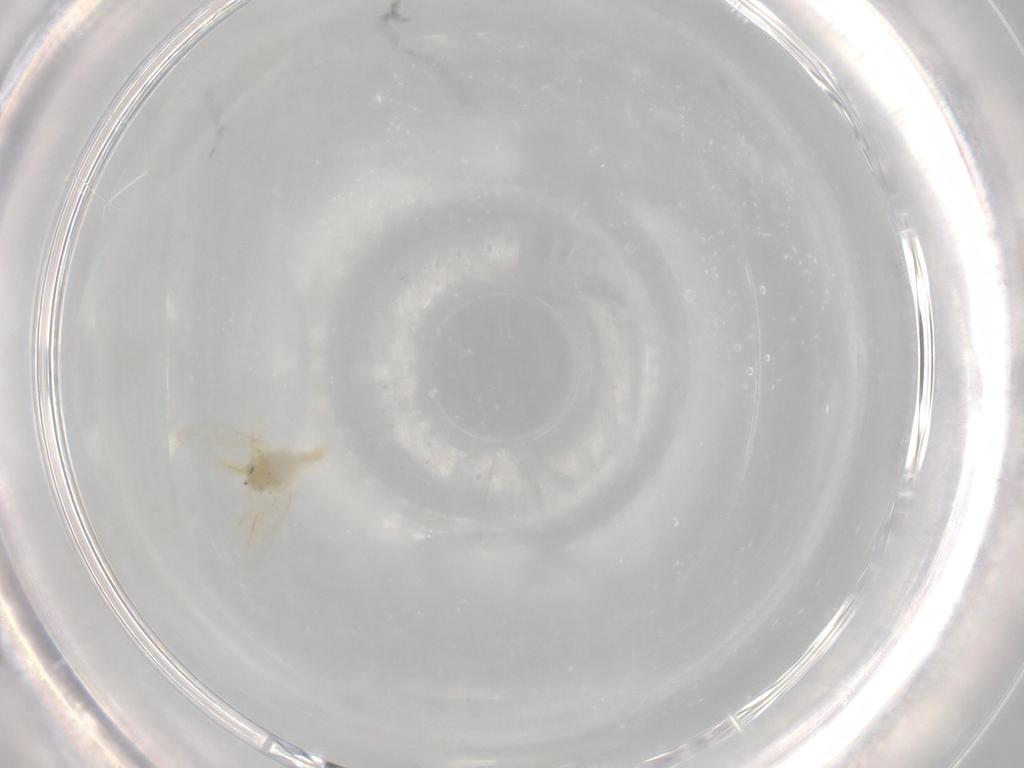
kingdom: Animalia
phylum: Arthropoda
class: Insecta
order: Hemiptera
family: Aleyrodidae
